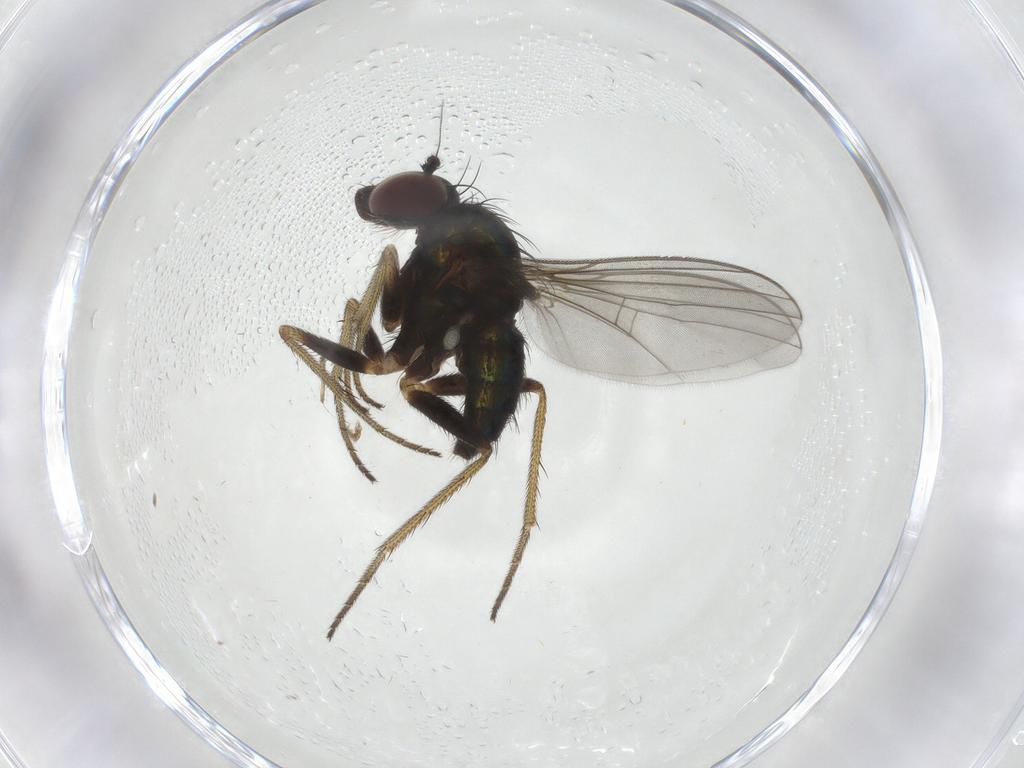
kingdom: Animalia
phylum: Arthropoda
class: Insecta
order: Diptera
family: Dolichopodidae
